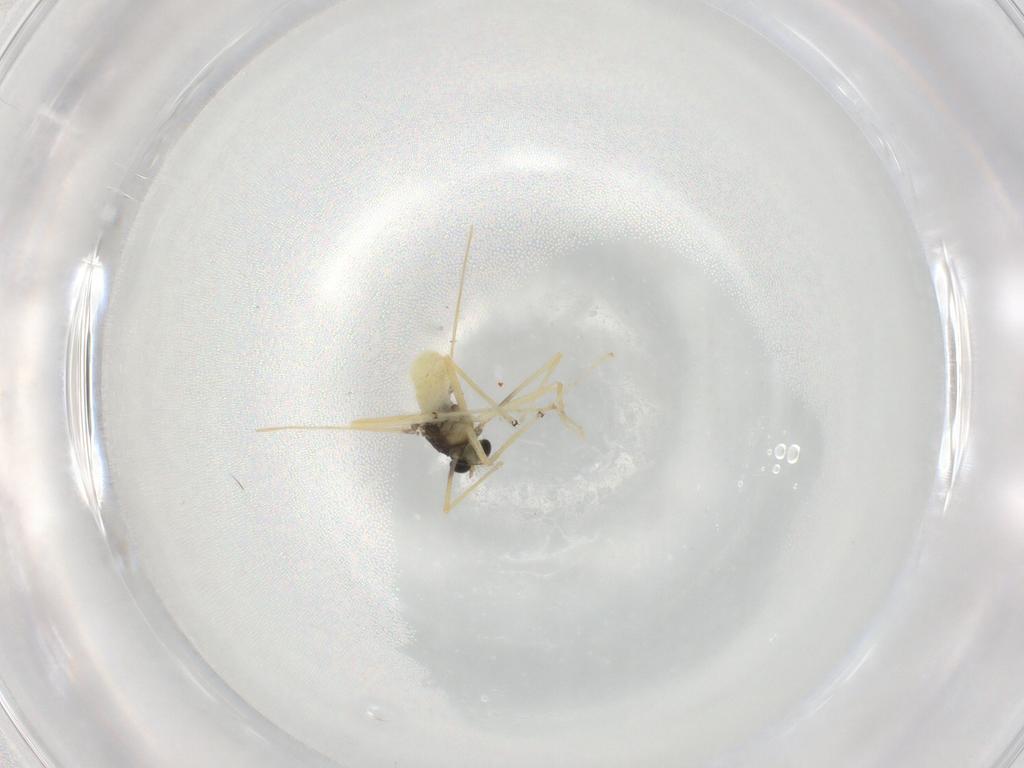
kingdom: Animalia
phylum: Arthropoda
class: Insecta
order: Diptera
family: Chironomidae
